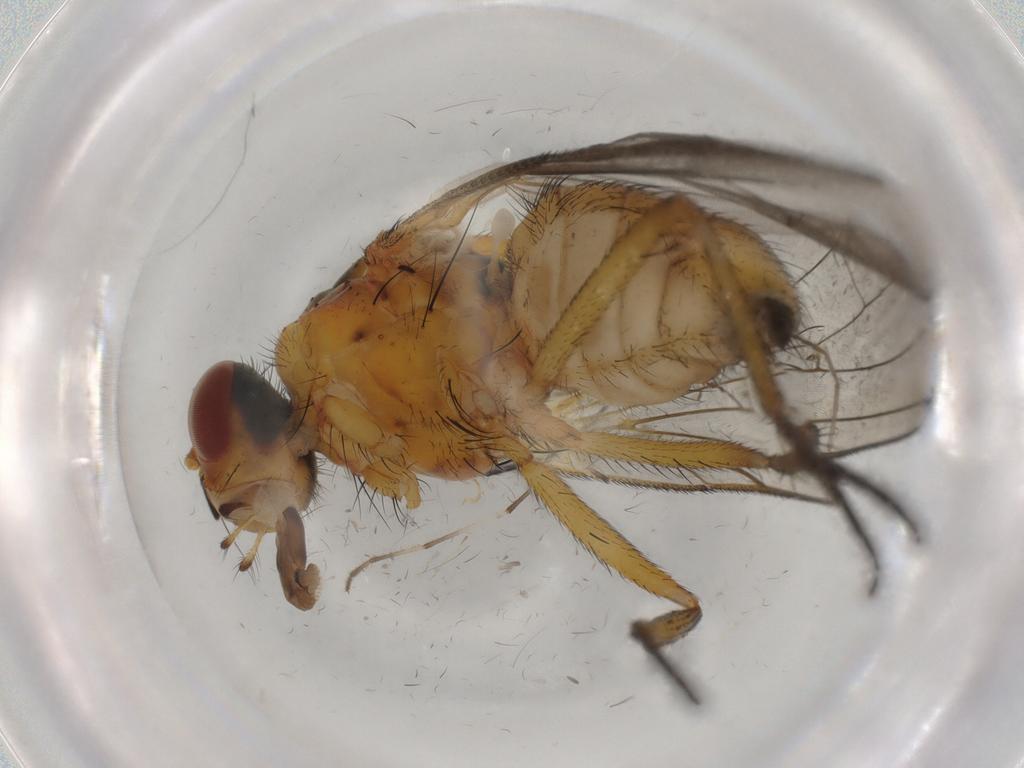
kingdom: Animalia
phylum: Arthropoda
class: Insecta
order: Diptera
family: Anthomyiidae
